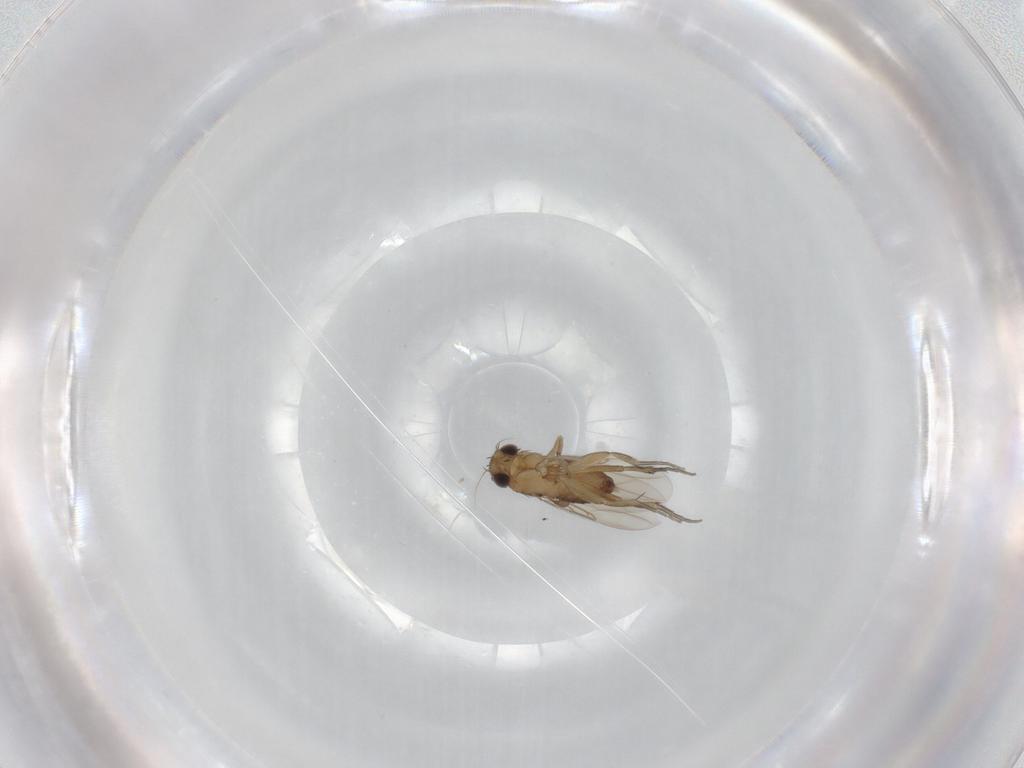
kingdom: Animalia
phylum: Arthropoda
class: Insecta
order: Diptera
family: Phoridae
